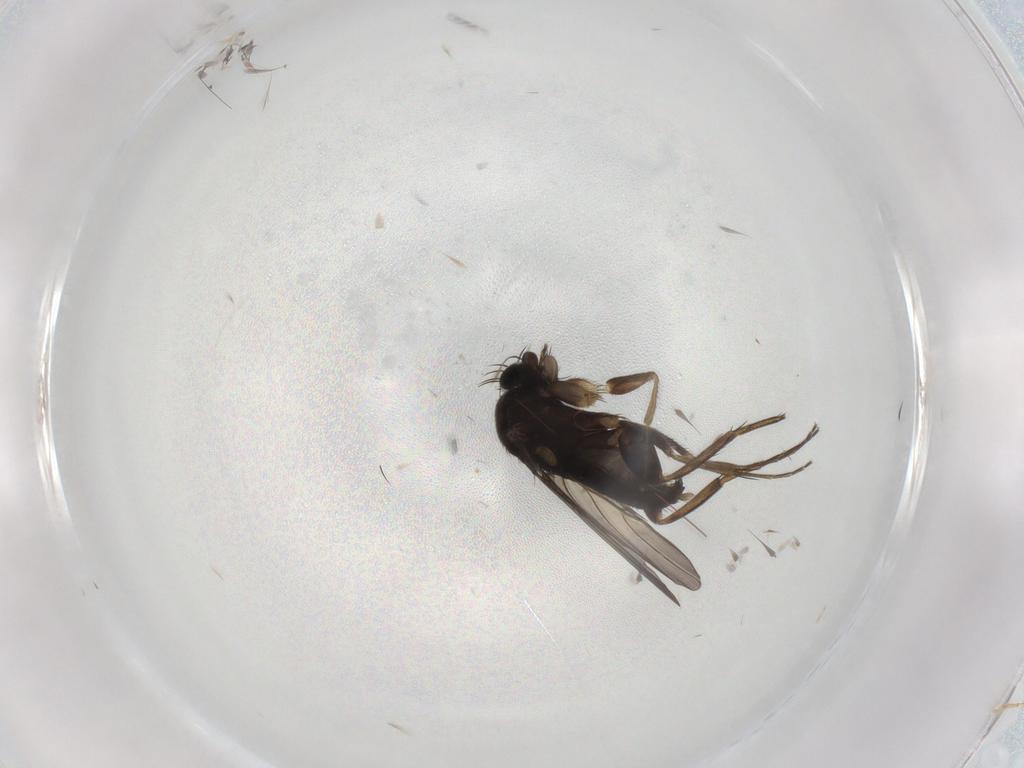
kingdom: Animalia
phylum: Arthropoda
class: Insecta
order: Diptera
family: Phoridae
